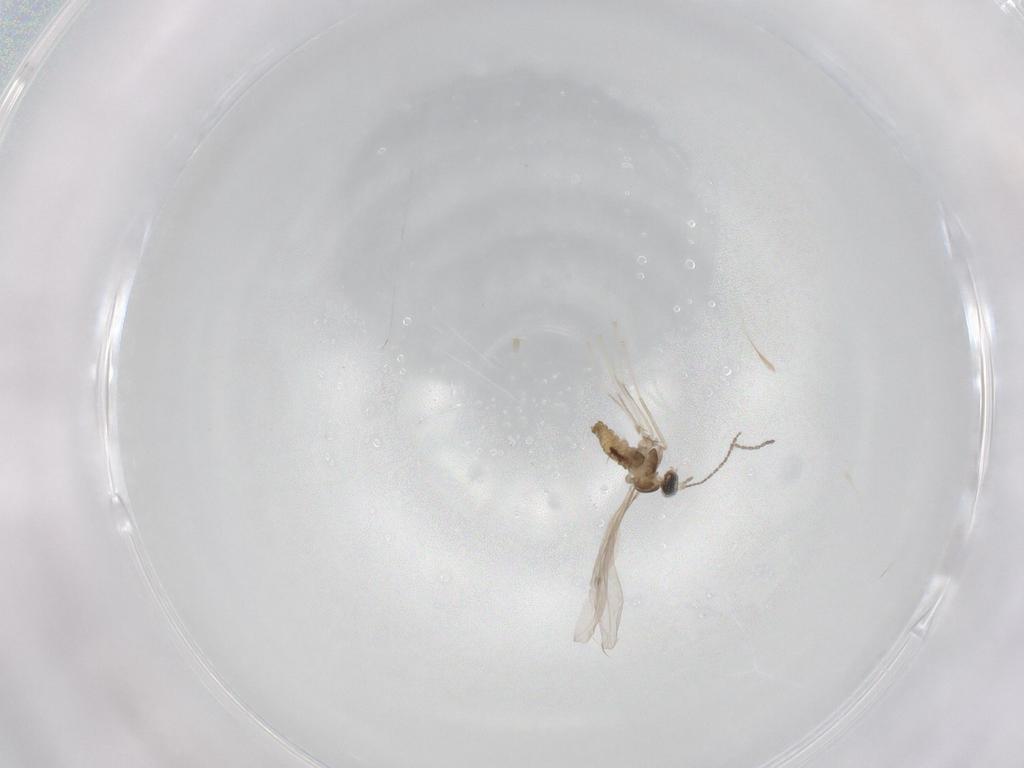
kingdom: Animalia
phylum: Arthropoda
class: Insecta
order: Diptera
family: Cecidomyiidae
